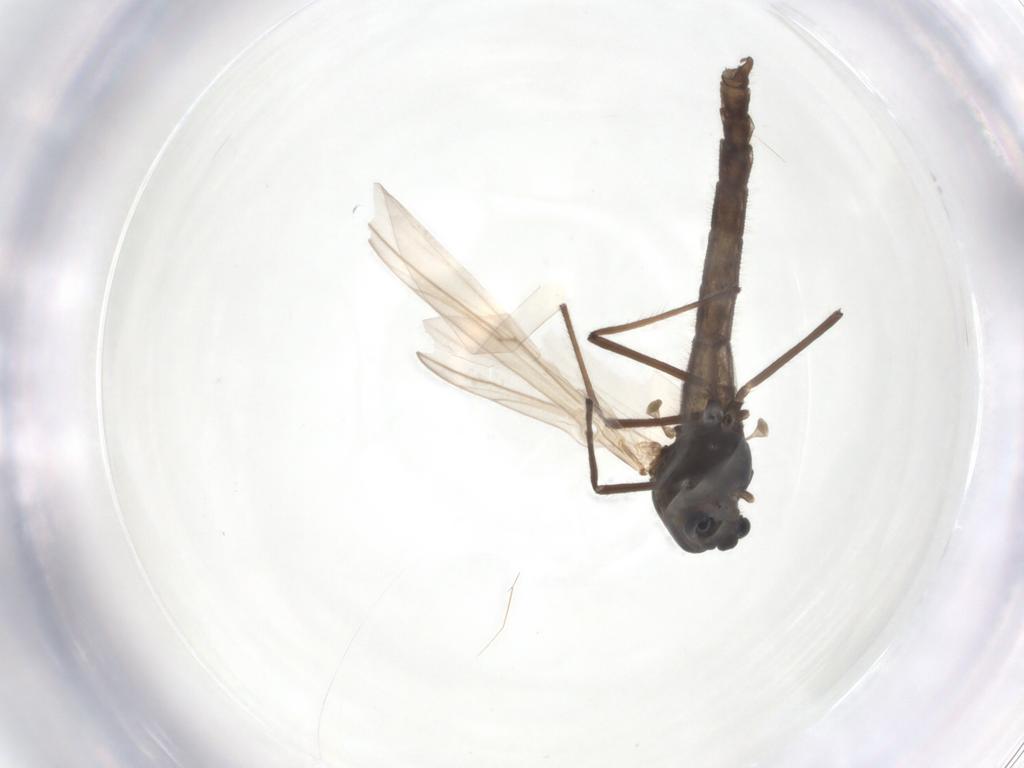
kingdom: Animalia
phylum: Arthropoda
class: Insecta
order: Diptera
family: Chironomidae
